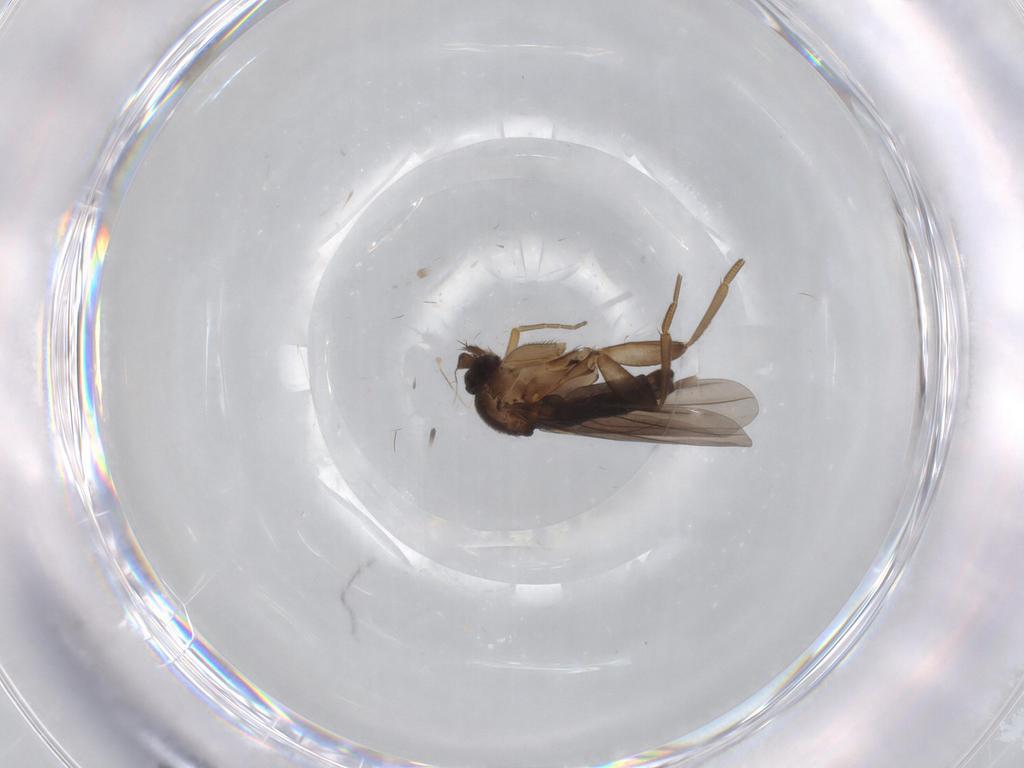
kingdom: Animalia
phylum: Arthropoda
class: Insecta
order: Diptera
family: Phoridae
